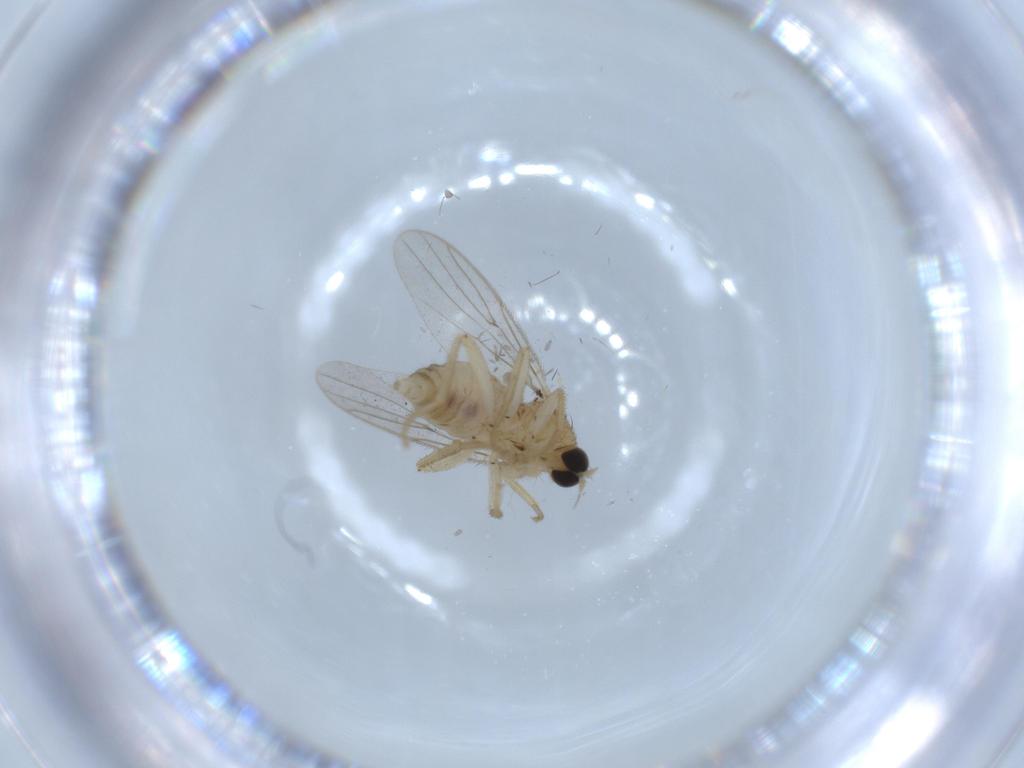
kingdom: Animalia
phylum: Arthropoda
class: Insecta
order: Diptera
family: Hybotidae
